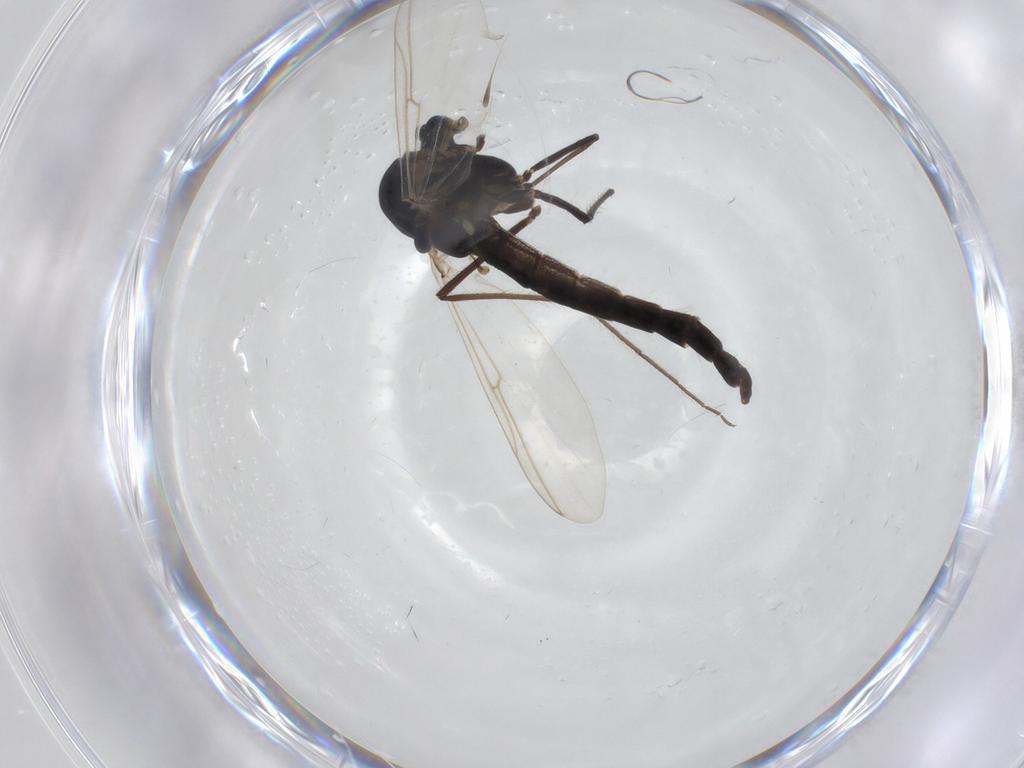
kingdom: Animalia
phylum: Arthropoda
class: Insecta
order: Diptera
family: Chironomidae
